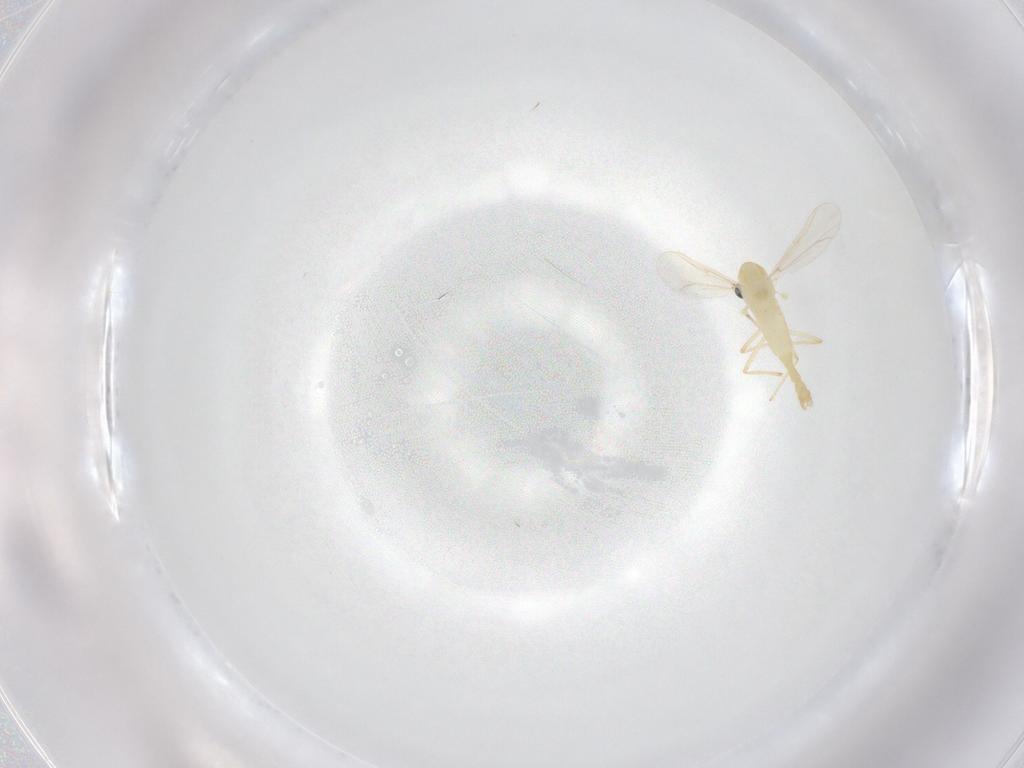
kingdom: Animalia
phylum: Arthropoda
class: Insecta
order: Diptera
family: Chironomidae
